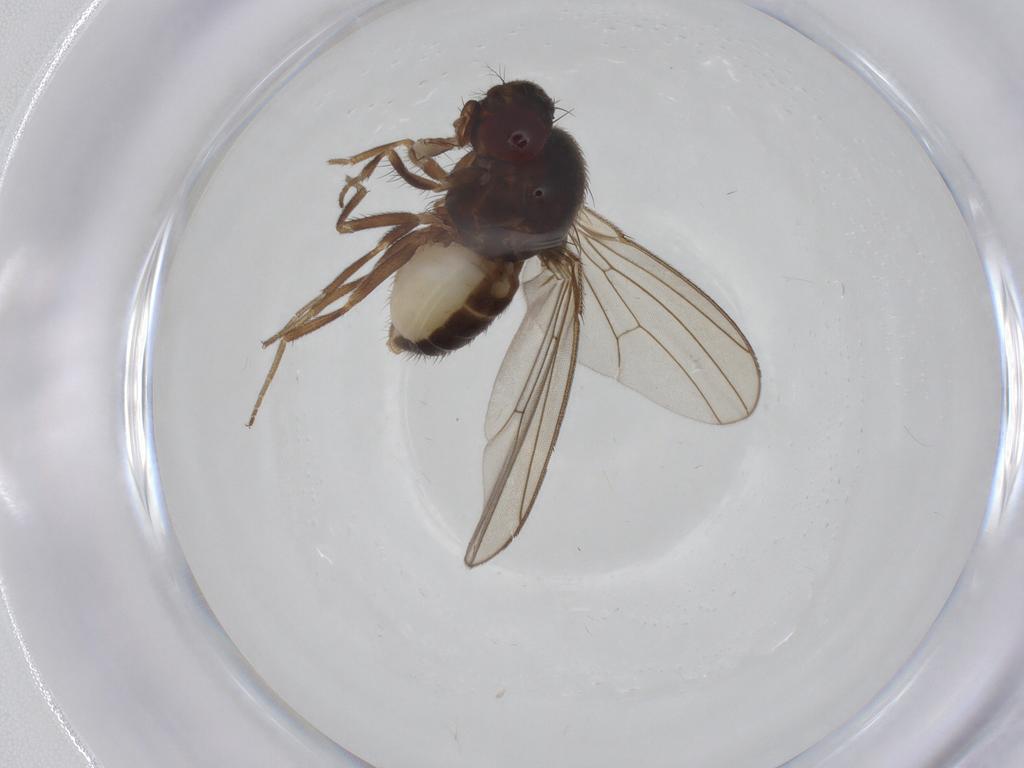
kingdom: Animalia
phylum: Arthropoda
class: Insecta
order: Diptera
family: Drosophilidae
